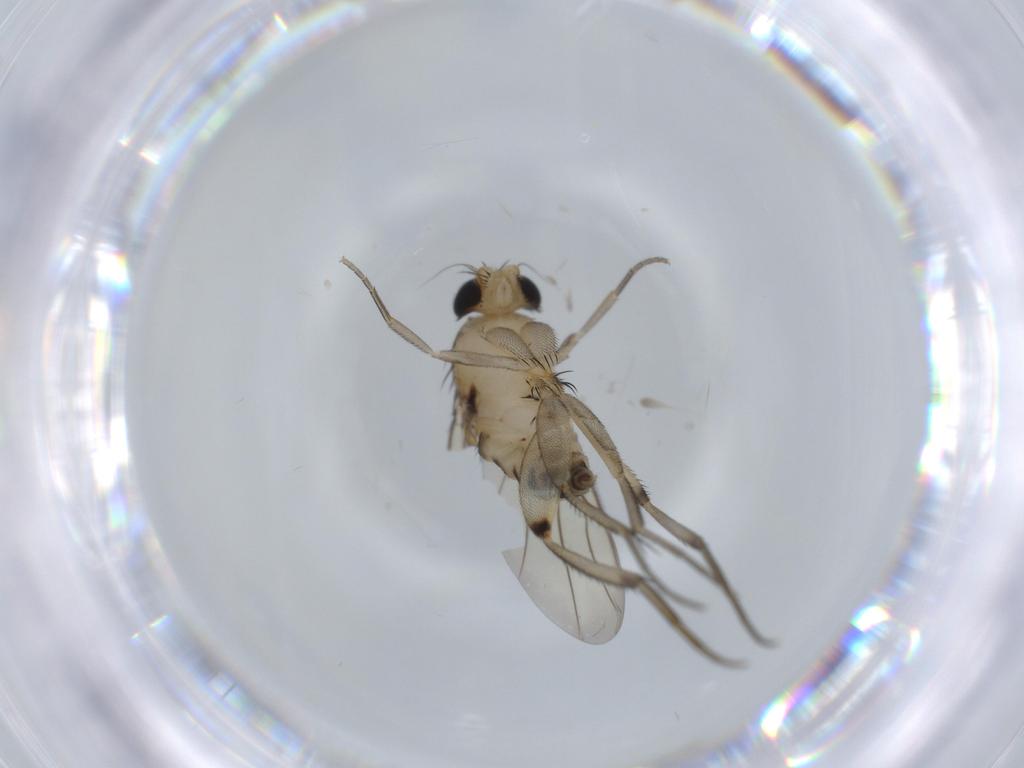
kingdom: Animalia
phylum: Arthropoda
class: Insecta
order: Diptera
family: Phoridae
